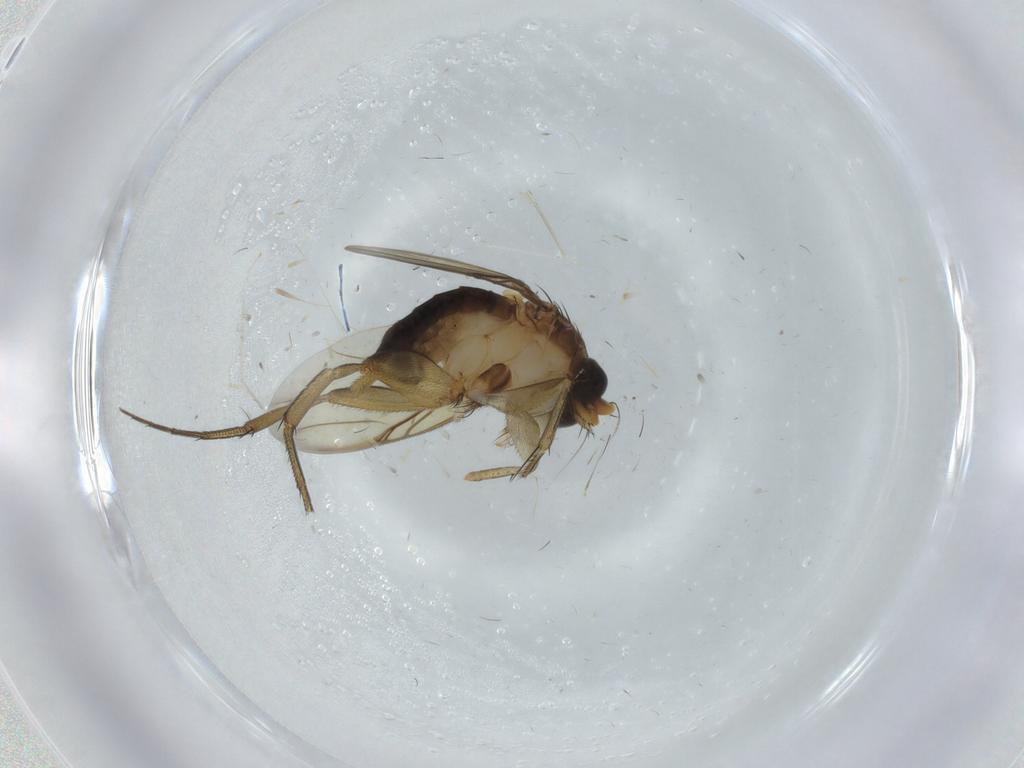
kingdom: Animalia
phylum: Arthropoda
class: Insecta
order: Diptera
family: Phoridae
